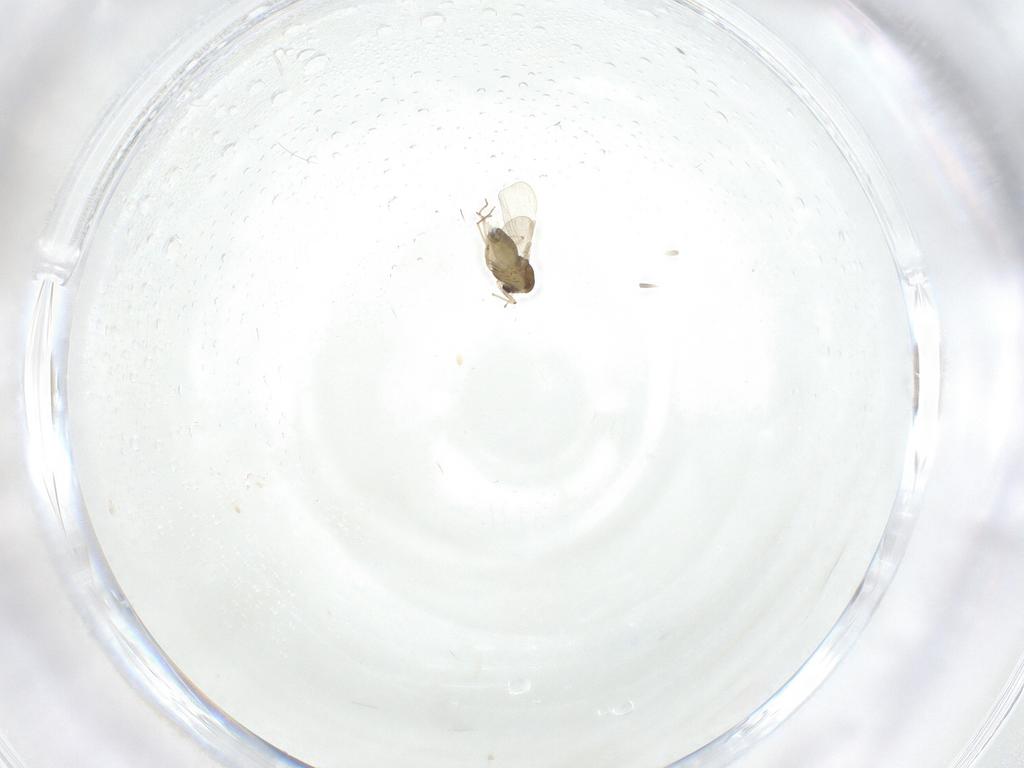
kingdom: Animalia
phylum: Arthropoda
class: Insecta
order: Diptera
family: Chironomidae
